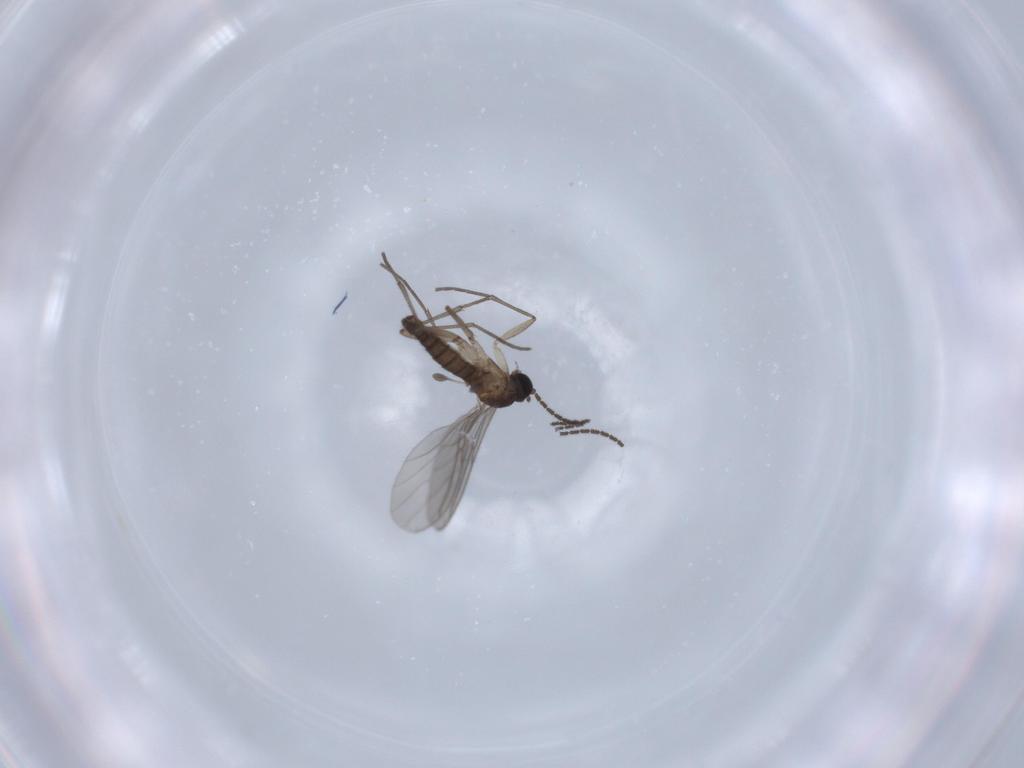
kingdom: Animalia
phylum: Arthropoda
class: Insecta
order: Diptera
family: Sciaridae
